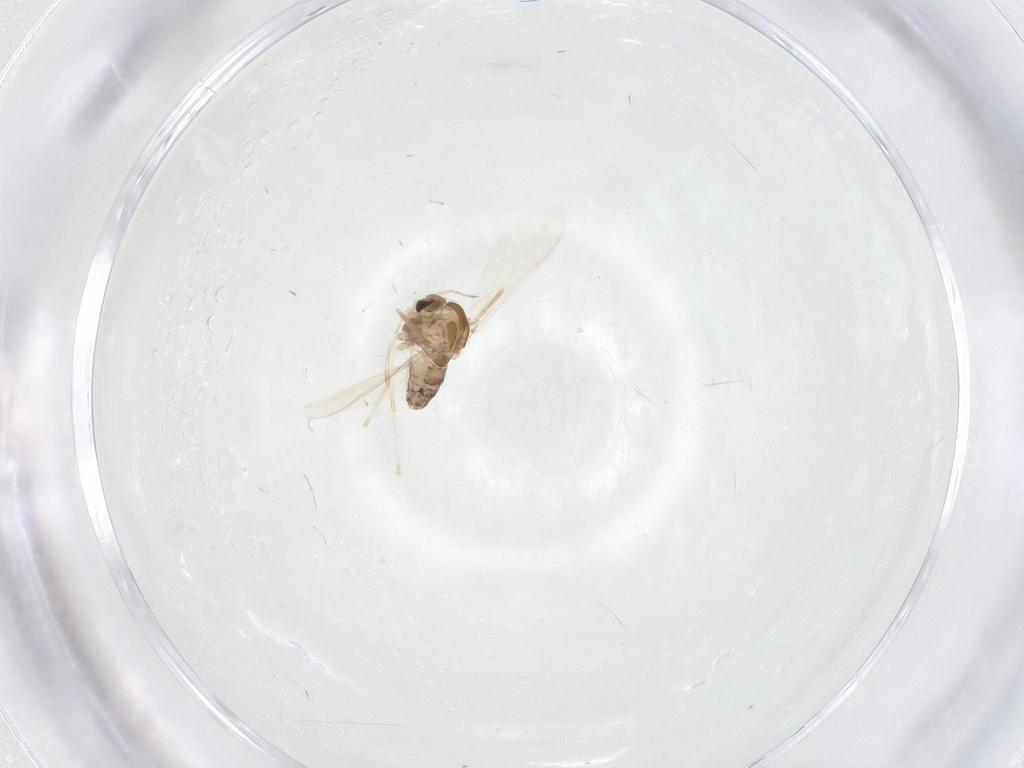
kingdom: Animalia
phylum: Arthropoda
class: Insecta
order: Diptera
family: Chironomidae
